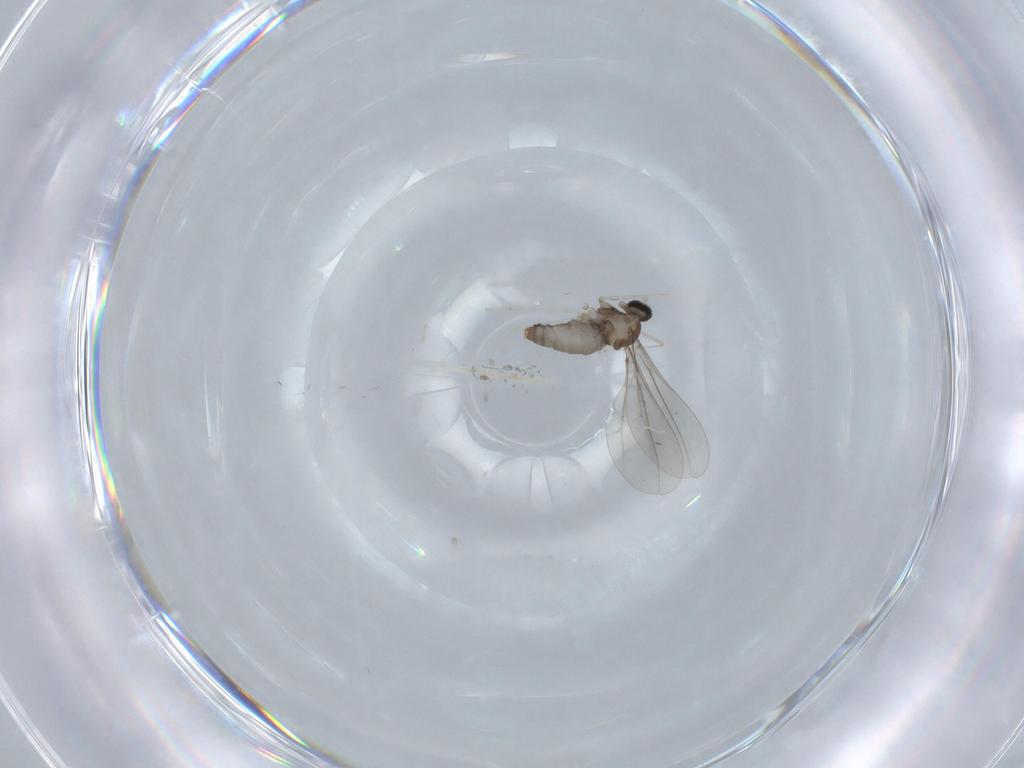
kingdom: Animalia
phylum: Arthropoda
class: Insecta
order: Diptera
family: Cecidomyiidae
